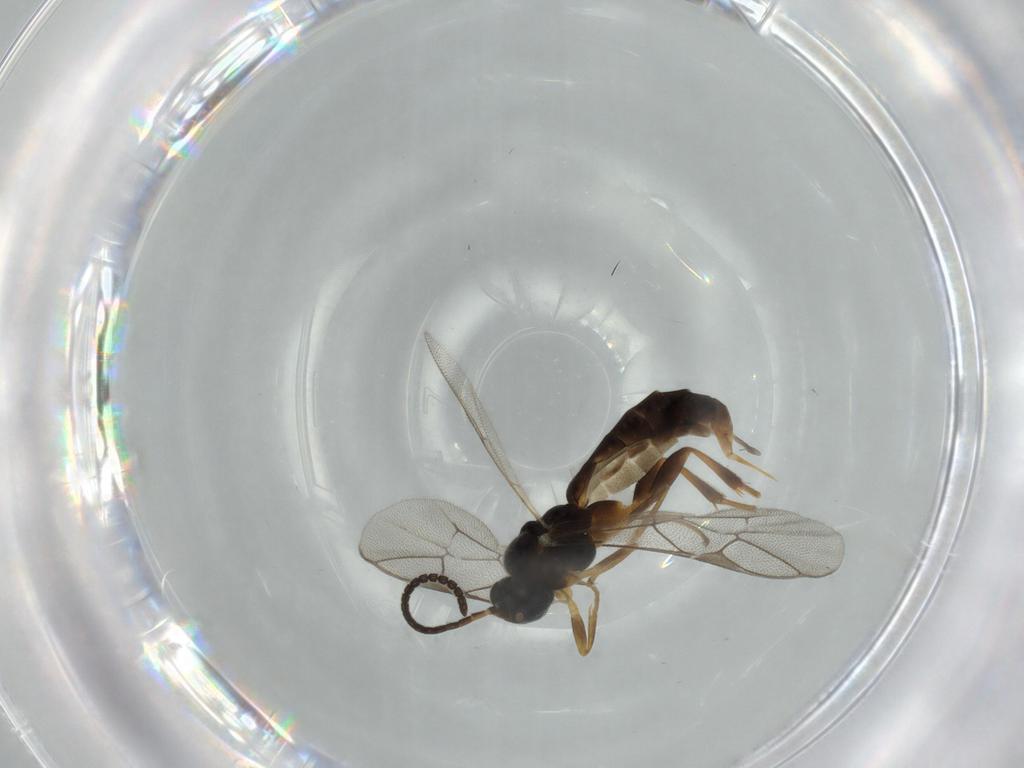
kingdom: Animalia
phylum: Arthropoda
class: Insecta
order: Hymenoptera
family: Ichneumonidae
